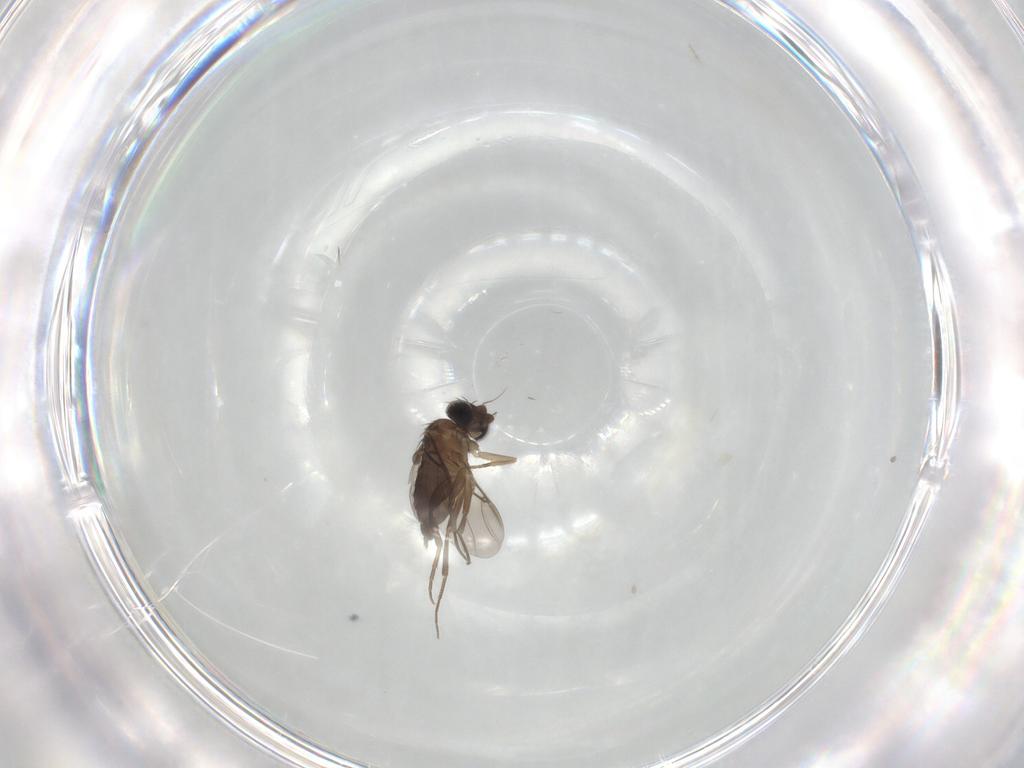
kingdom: Animalia
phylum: Arthropoda
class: Insecta
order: Diptera
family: Phoridae
